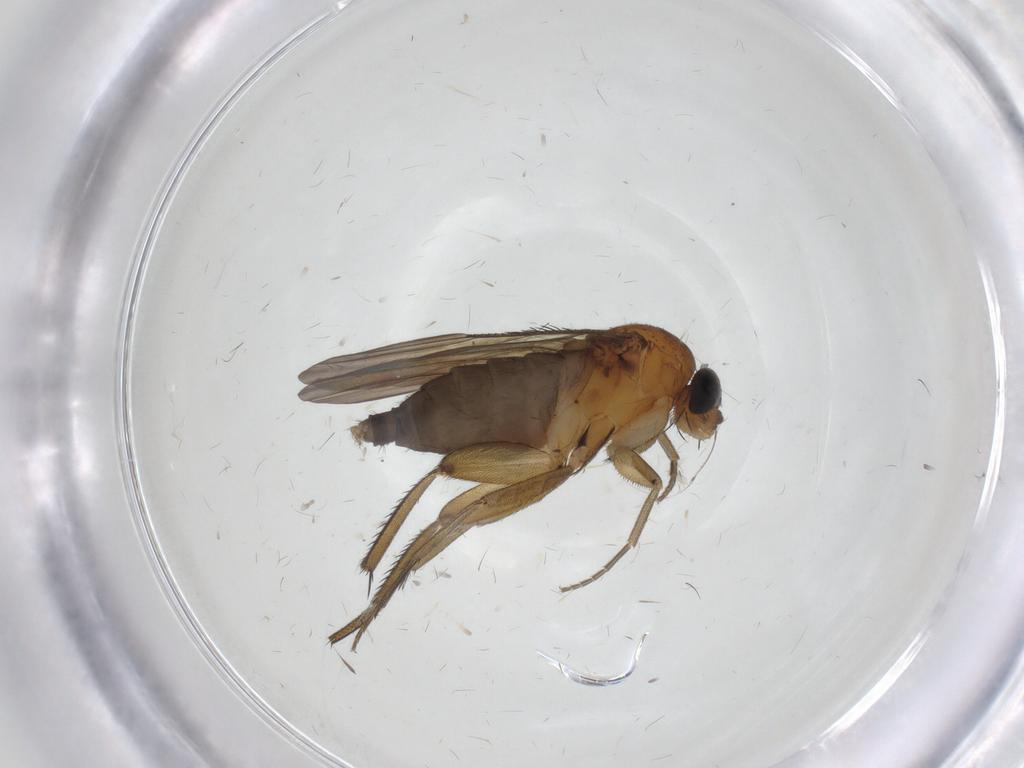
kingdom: Animalia
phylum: Arthropoda
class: Insecta
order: Diptera
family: Phoridae
